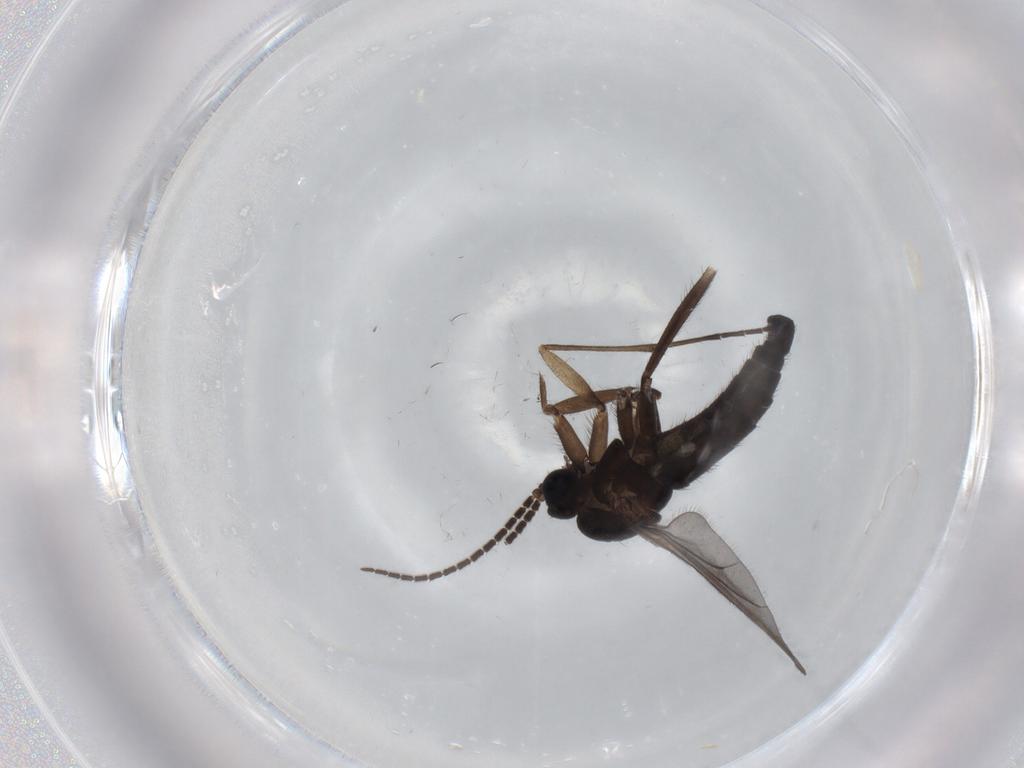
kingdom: Animalia
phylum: Arthropoda
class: Insecta
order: Diptera
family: Sciaridae
